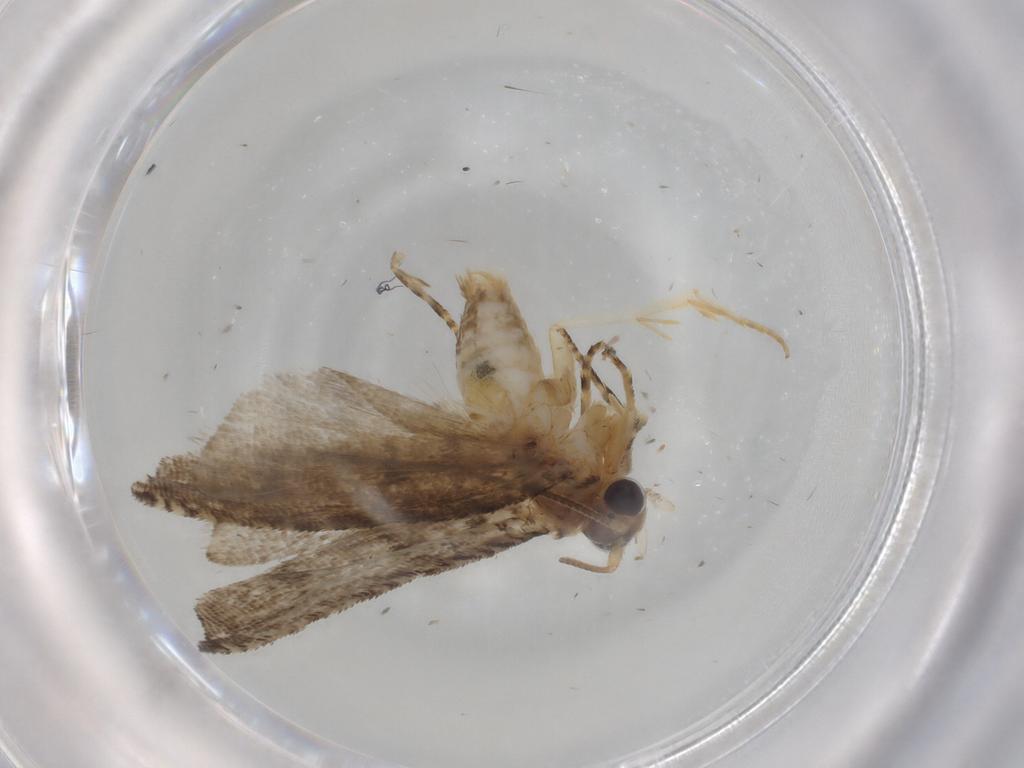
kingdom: Animalia
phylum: Arthropoda
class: Insecta
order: Lepidoptera
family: Tortricidae
